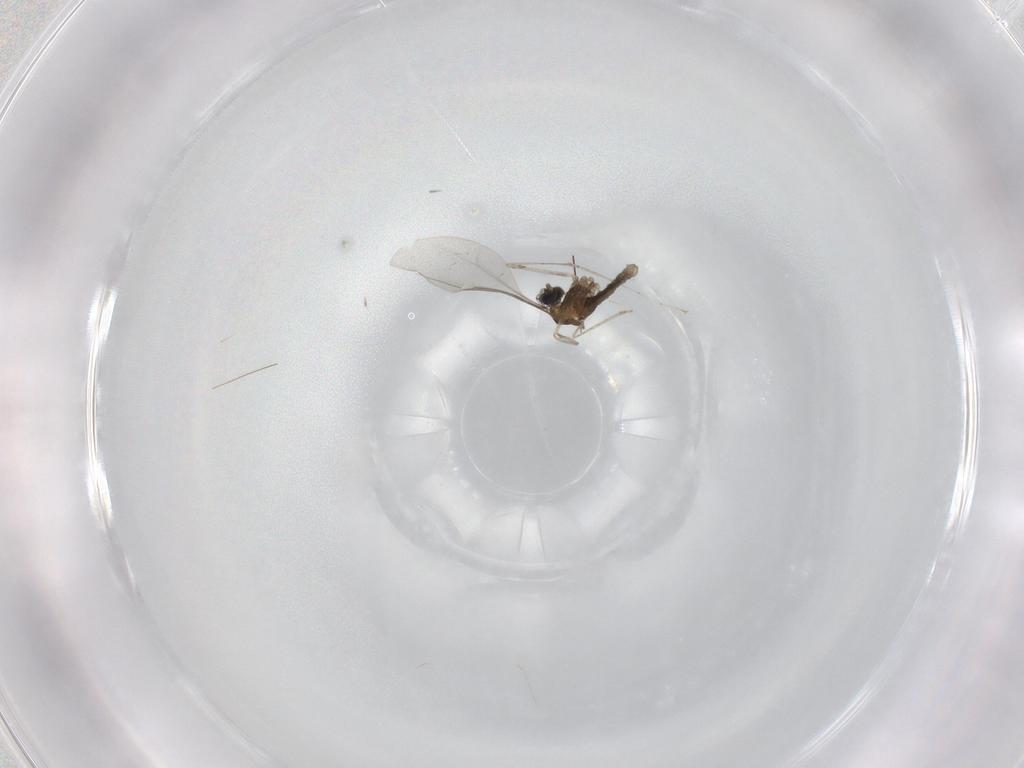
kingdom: Animalia
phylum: Arthropoda
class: Insecta
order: Diptera
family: Cecidomyiidae
